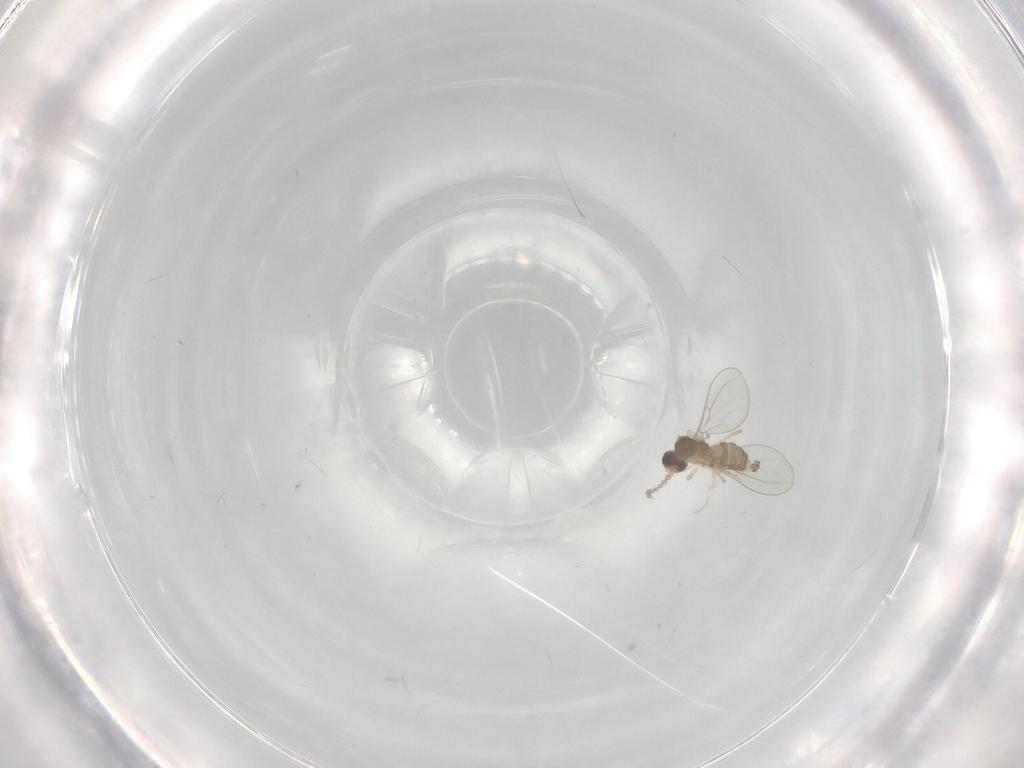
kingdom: Animalia
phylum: Arthropoda
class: Insecta
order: Diptera
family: Cecidomyiidae
